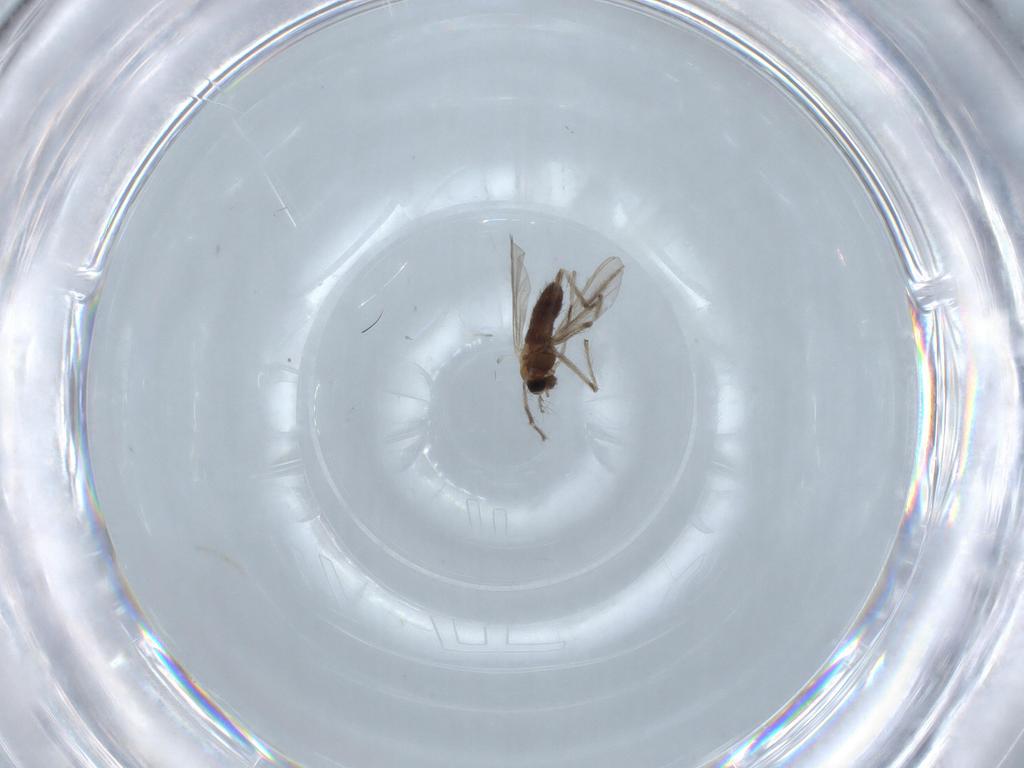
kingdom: Animalia
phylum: Arthropoda
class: Insecta
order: Diptera
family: Chironomidae
